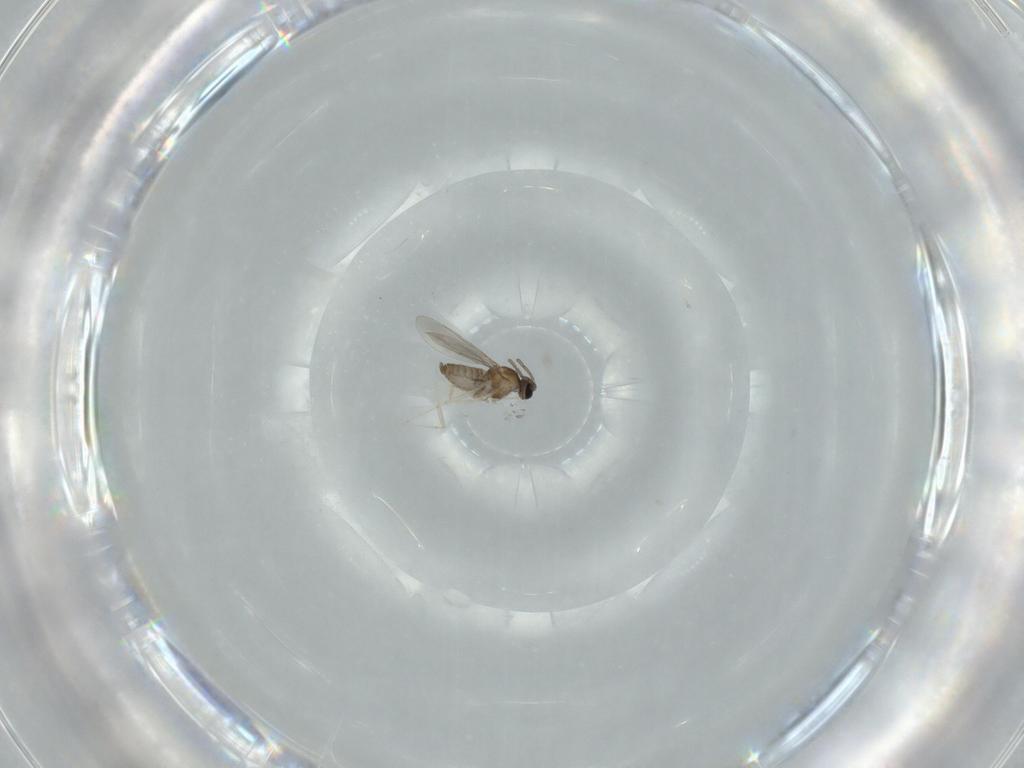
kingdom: Animalia
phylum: Arthropoda
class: Insecta
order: Diptera
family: Cecidomyiidae
